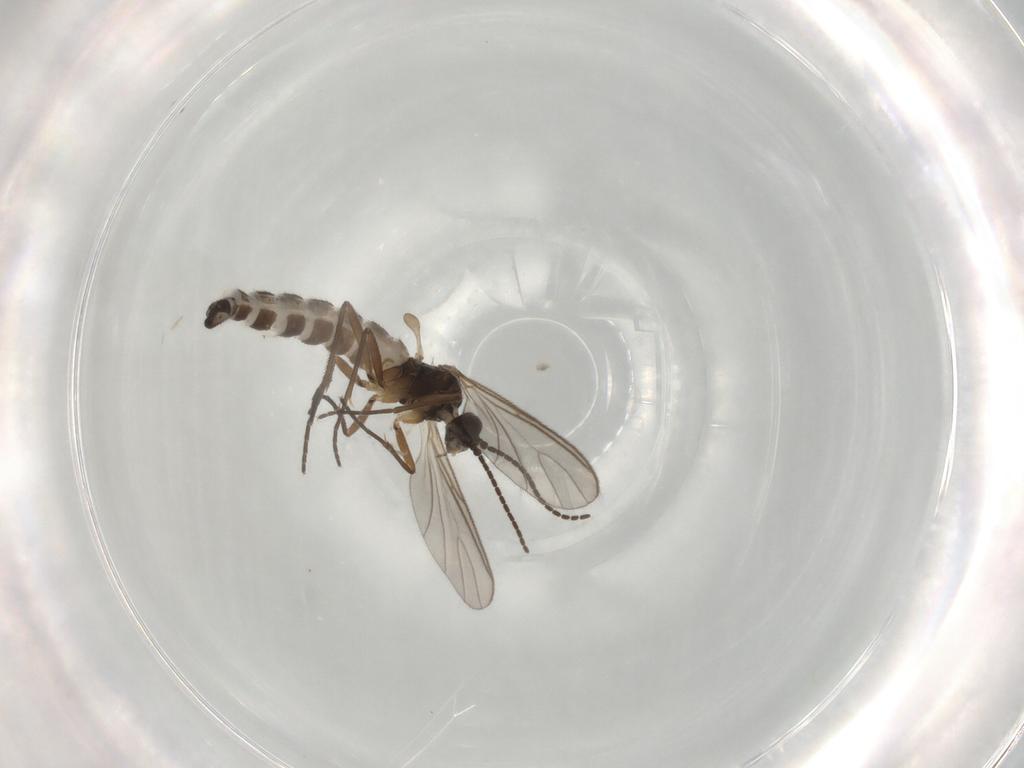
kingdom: Animalia
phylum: Arthropoda
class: Insecta
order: Diptera
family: Sciaridae
